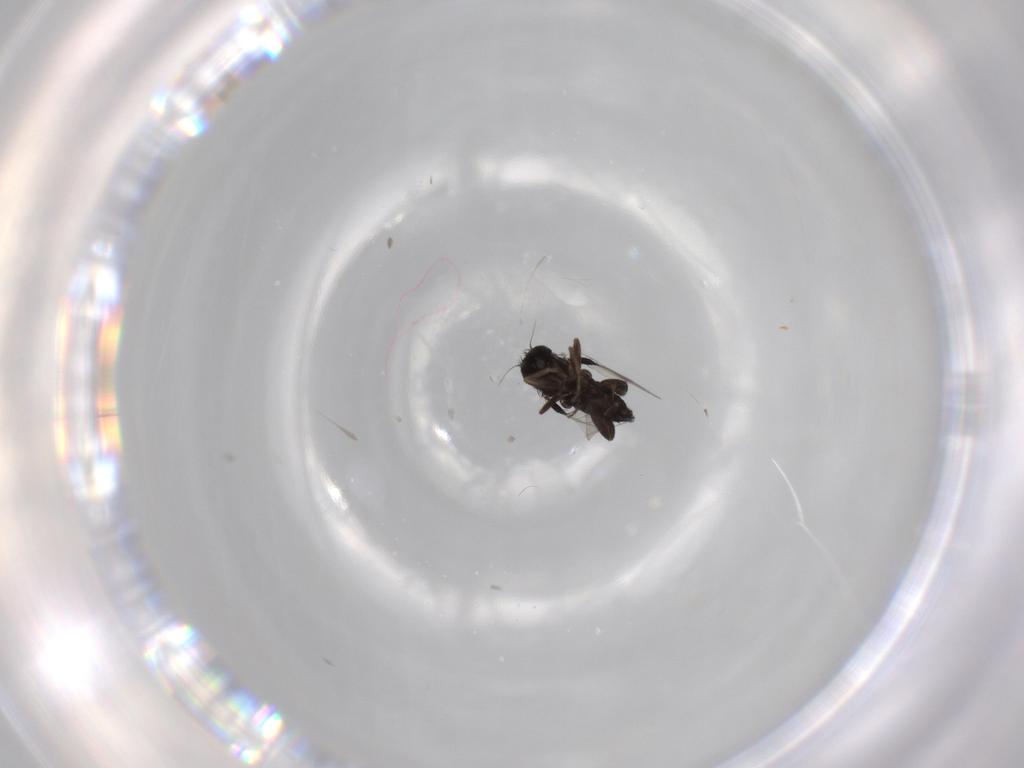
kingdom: Animalia
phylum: Arthropoda
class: Insecta
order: Diptera
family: Phoridae
